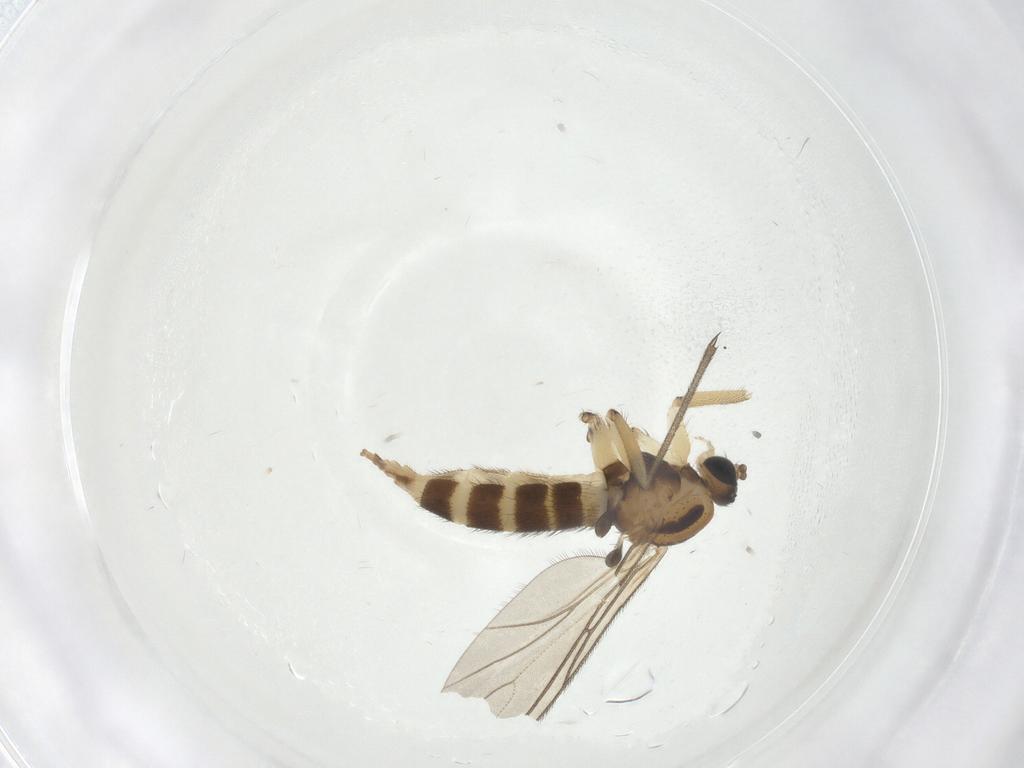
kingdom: Animalia
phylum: Arthropoda
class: Insecta
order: Diptera
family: Sciaridae
